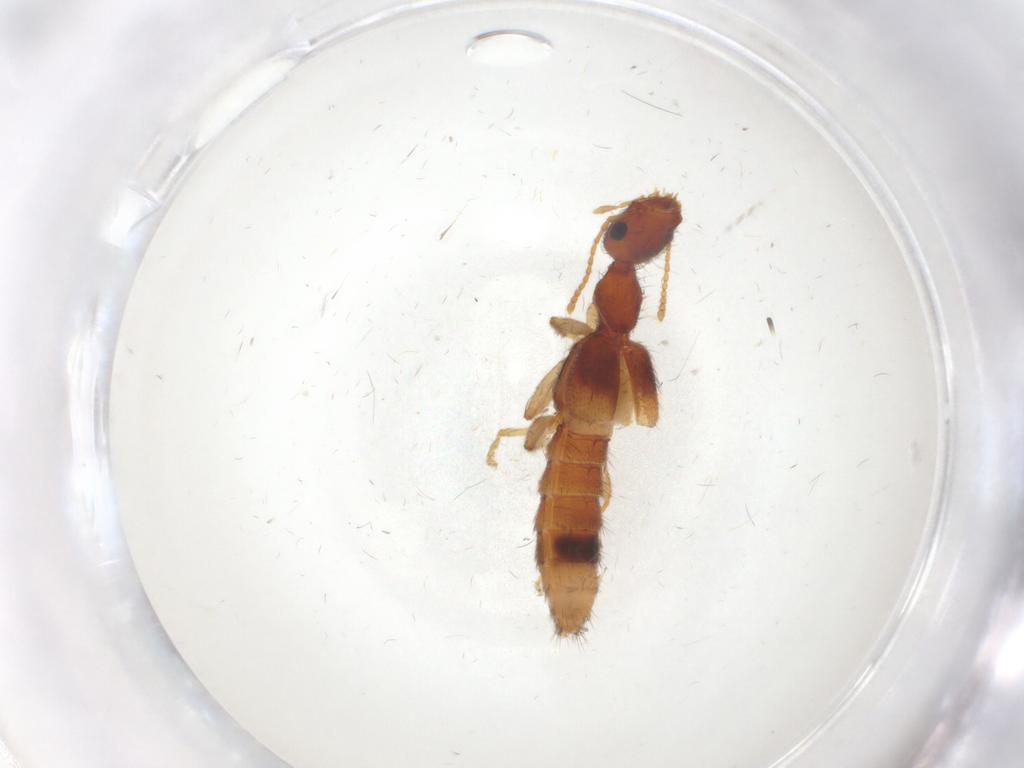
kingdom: Animalia
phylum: Arthropoda
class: Insecta
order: Coleoptera
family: Staphylinidae
